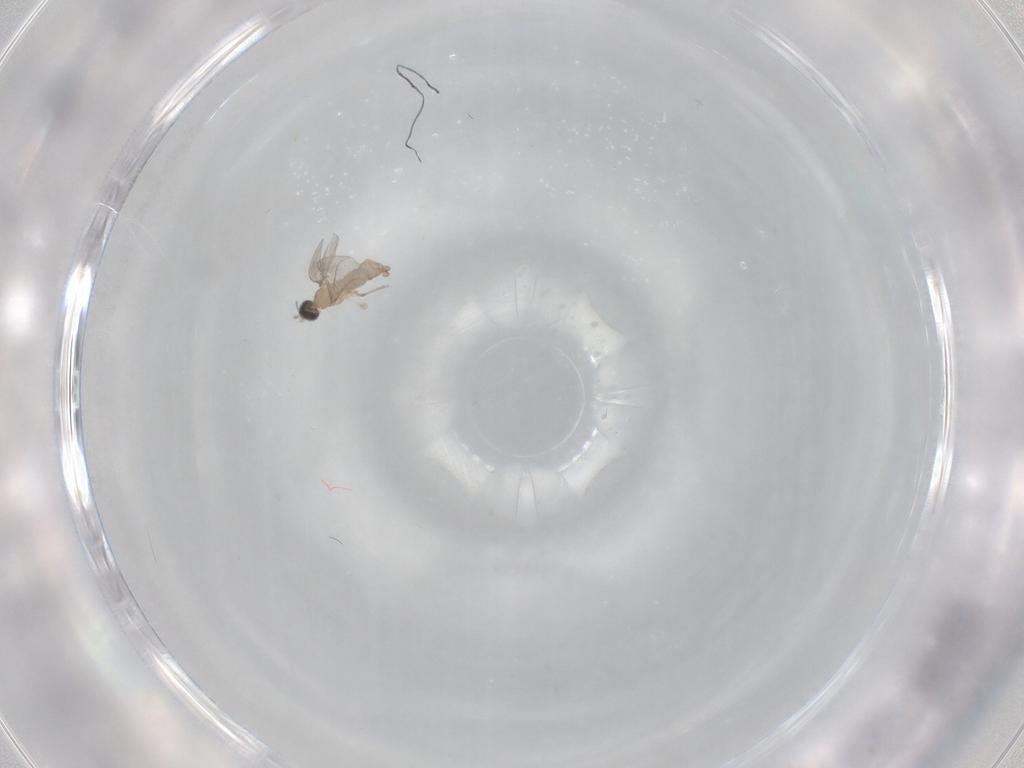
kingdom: Animalia
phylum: Arthropoda
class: Insecta
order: Diptera
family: Cecidomyiidae
